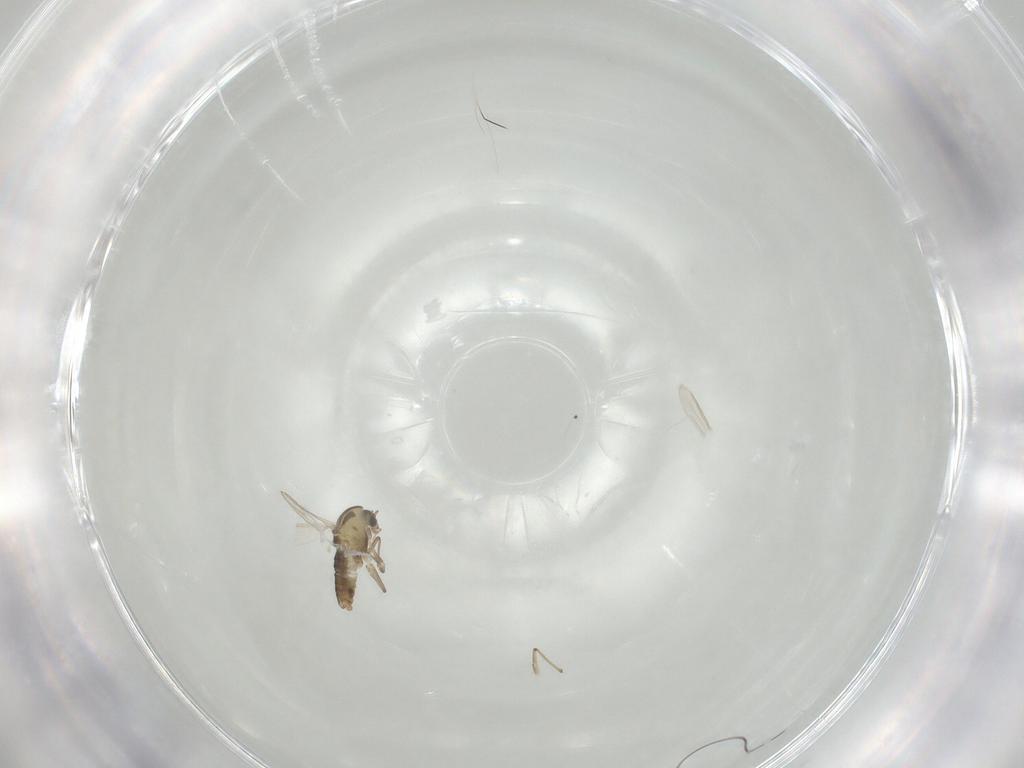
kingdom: Animalia
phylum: Arthropoda
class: Insecta
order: Diptera
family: Chironomidae
